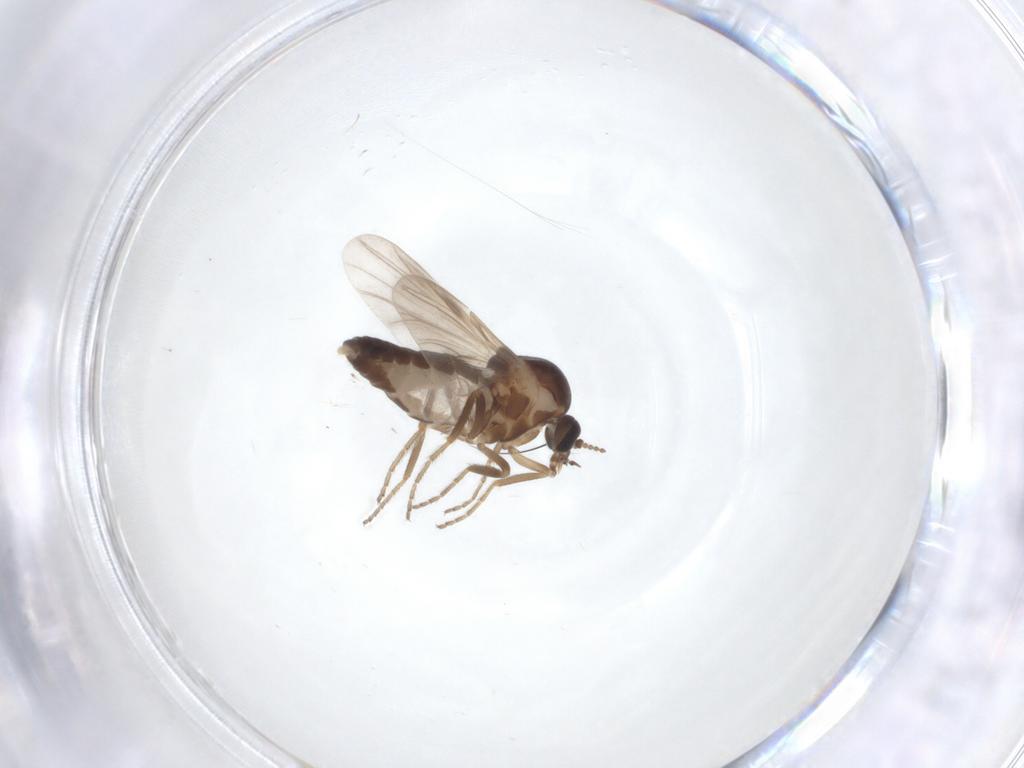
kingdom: Animalia
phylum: Arthropoda
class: Insecta
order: Diptera
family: Ceratopogonidae
